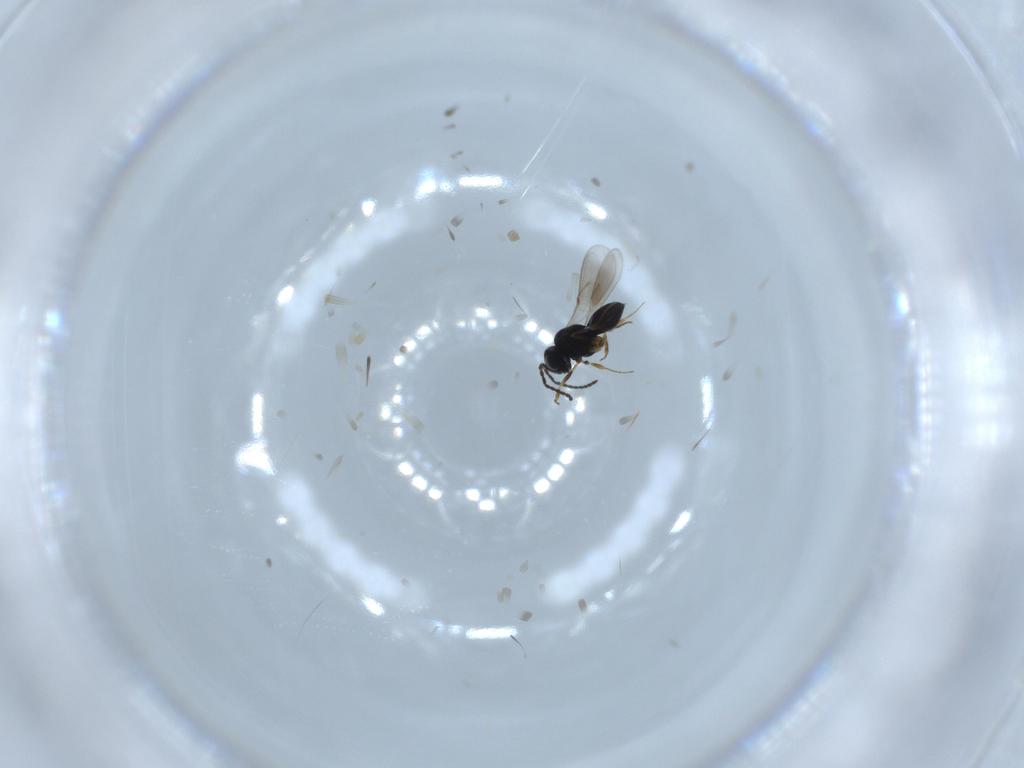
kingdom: Animalia
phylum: Arthropoda
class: Insecta
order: Hymenoptera
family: Scelionidae
